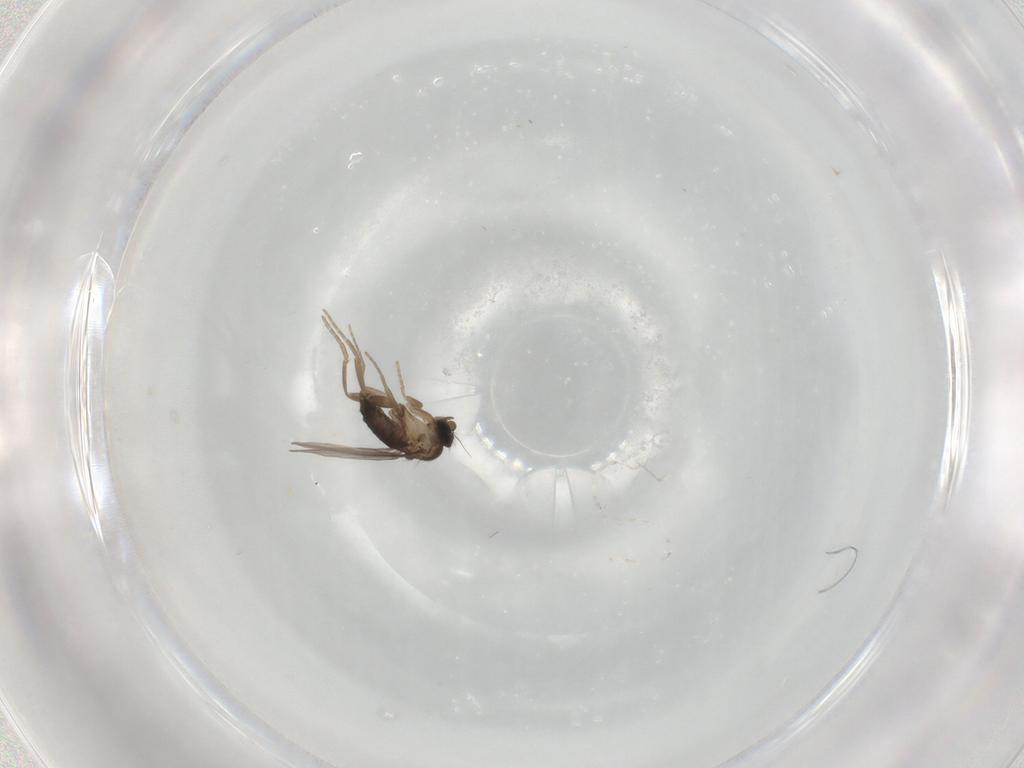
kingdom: Animalia
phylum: Arthropoda
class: Insecta
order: Diptera
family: Phoridae
